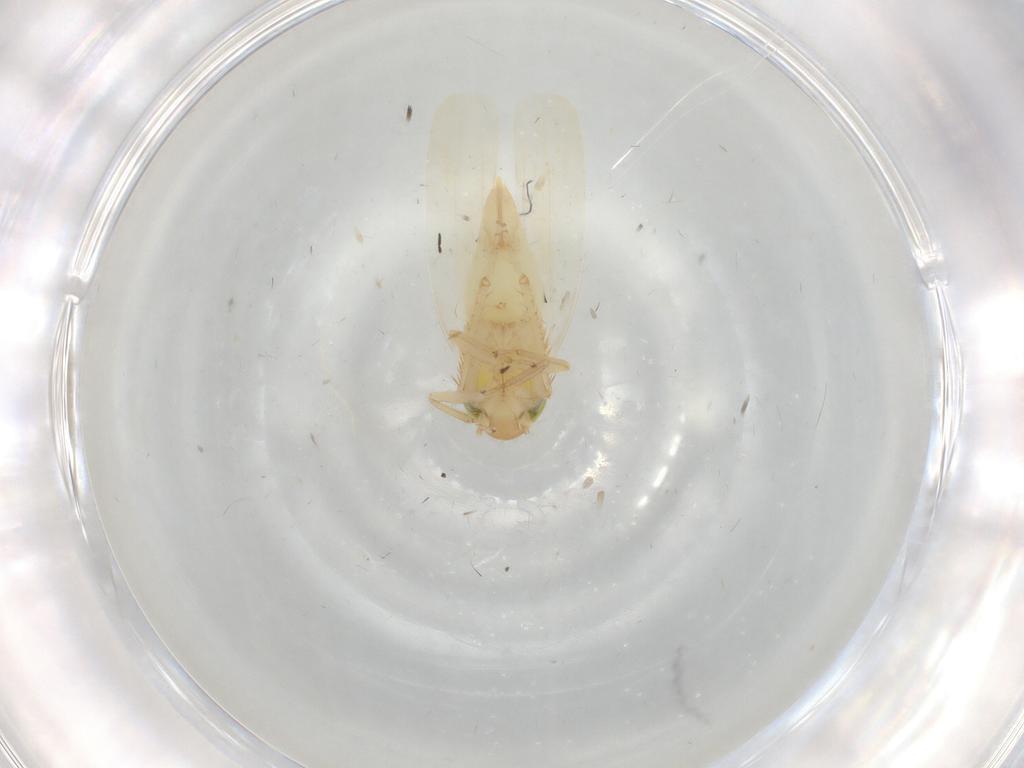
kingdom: Animalia
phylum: Arthropoda
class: Insecta
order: Hemiptera
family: Cicadellidae
